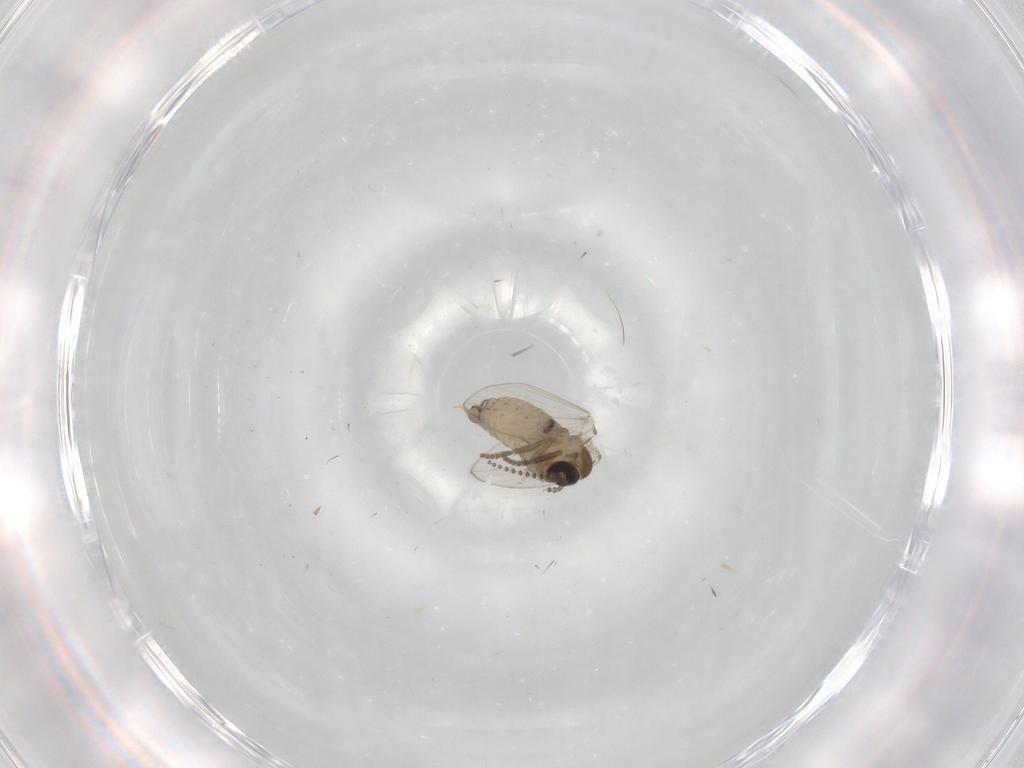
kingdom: Animalia
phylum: Arthropoda
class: Insecta
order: Diptera
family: Psychodidae
